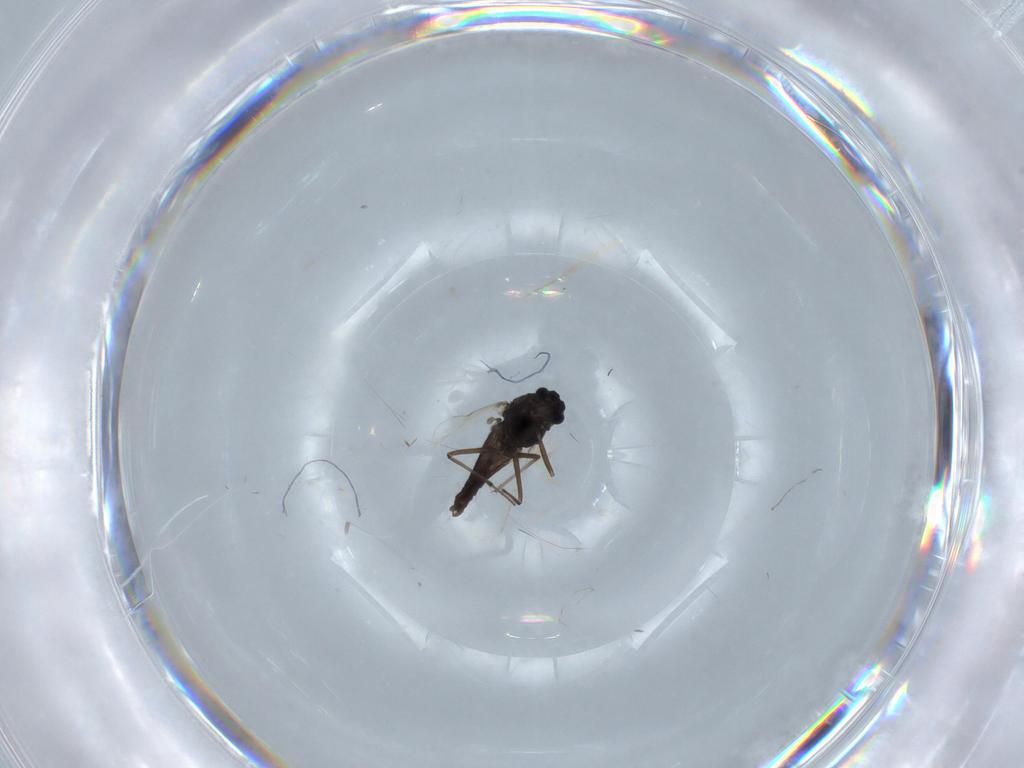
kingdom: Animalia
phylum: Arthropoda
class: Insecta
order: Diptera
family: Chironomidae
